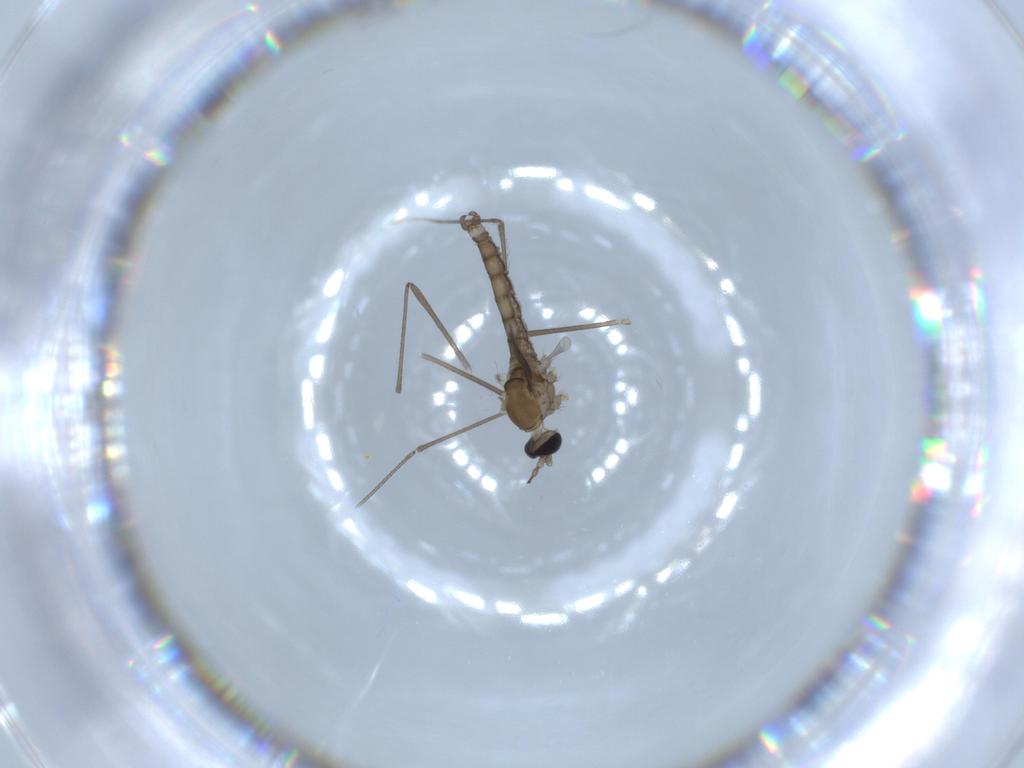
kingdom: Animalia
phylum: Arthropoda
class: Insecta
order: Diptera
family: Cecidomyiidae
